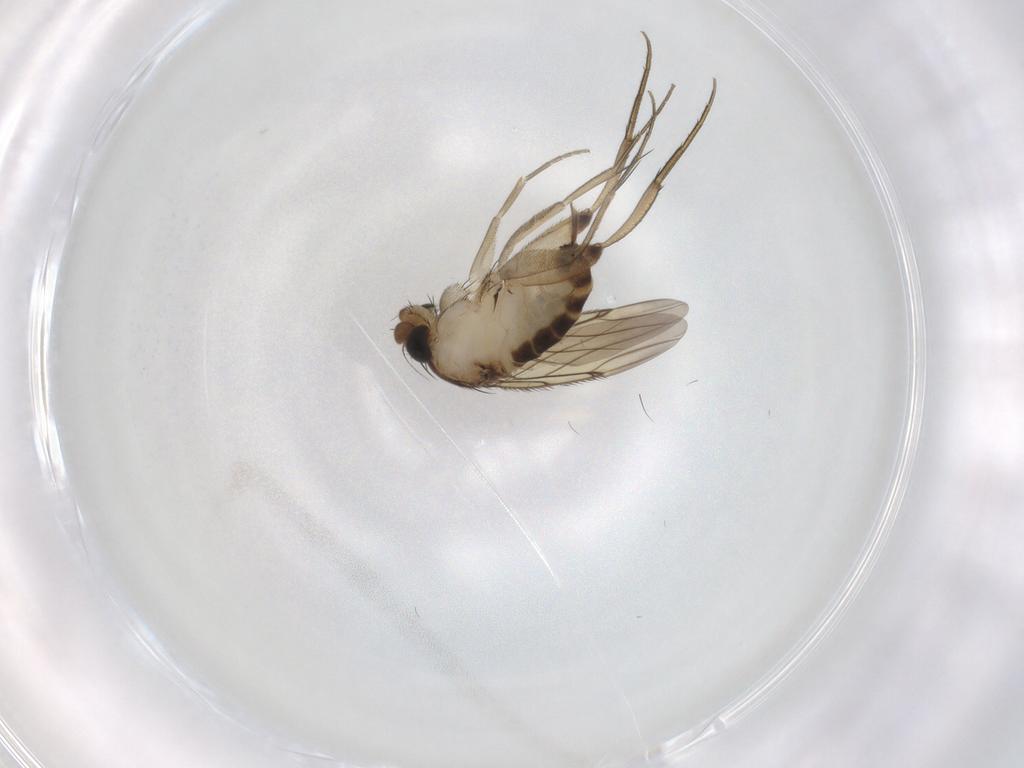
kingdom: Animalia
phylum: Arthropoda
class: Insecta
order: Diptera
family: Phoridae
